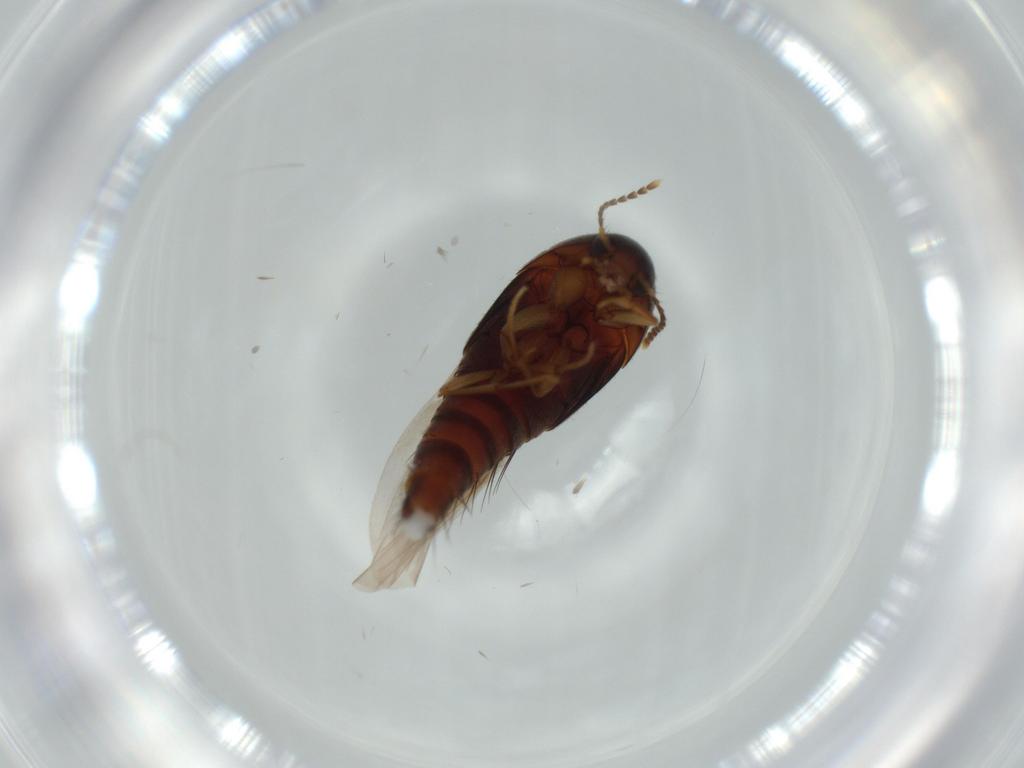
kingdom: Animalia
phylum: Arthropoda
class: Insecta
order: Coleoptera
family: Staphylinidae
